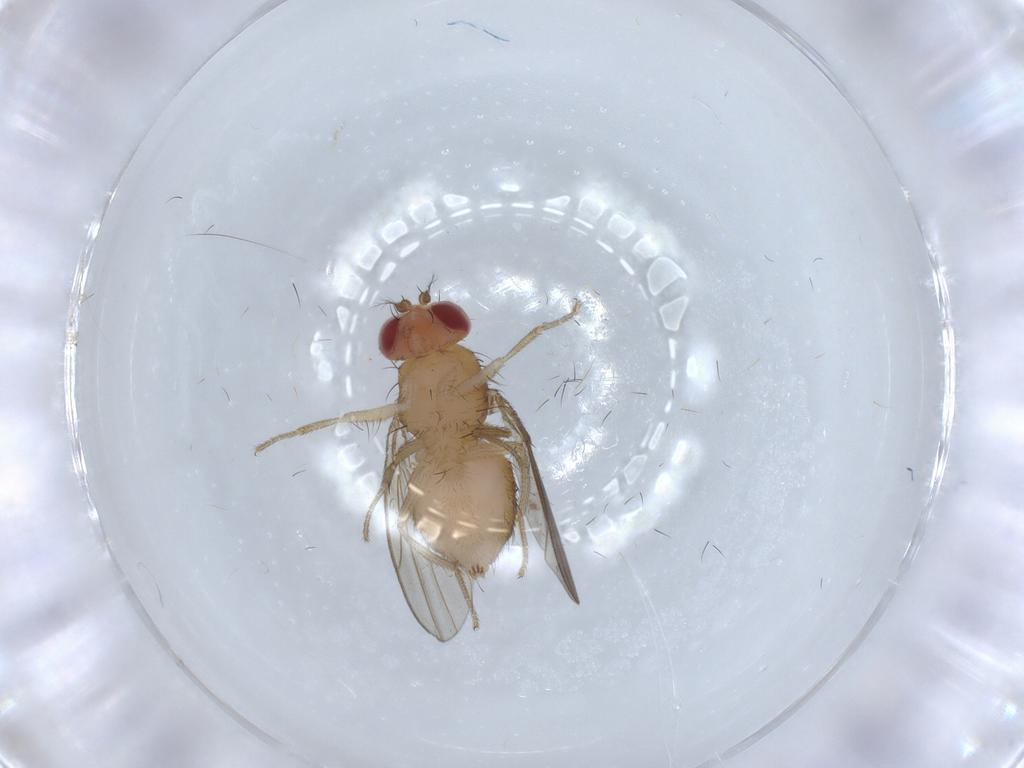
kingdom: Animalia
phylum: Arthropoda
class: Insecta
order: Diptera
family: Drosophilidae
